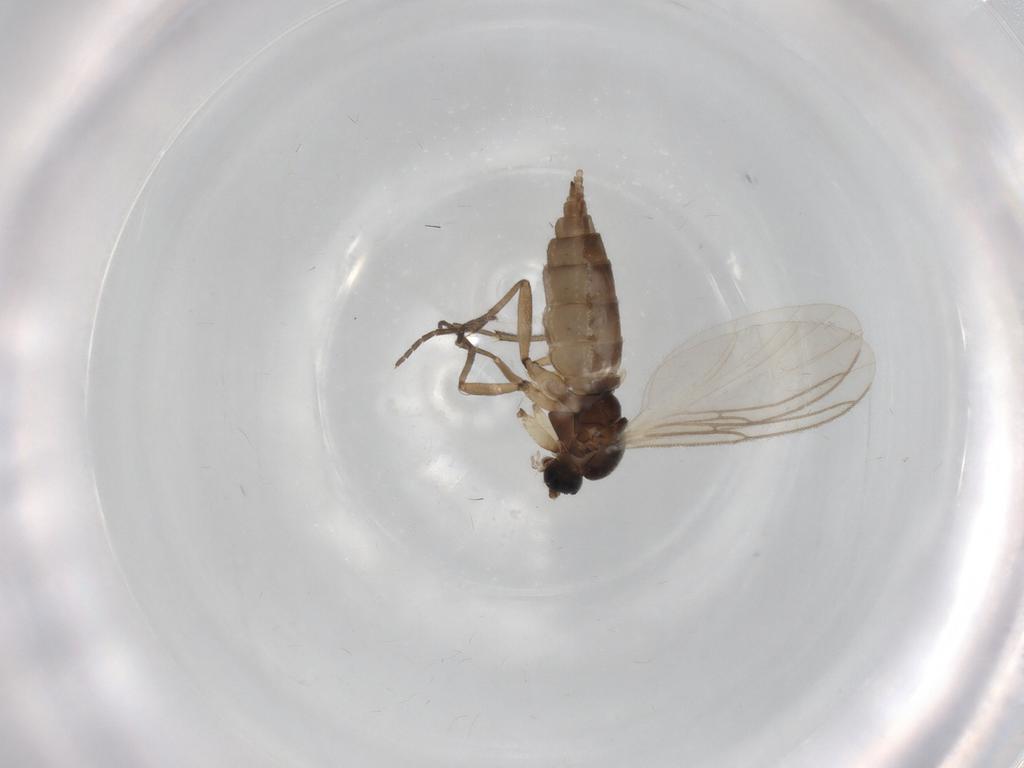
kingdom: Animalia
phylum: Arthropoda
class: Insecta
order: Diptera
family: Sciaridae
